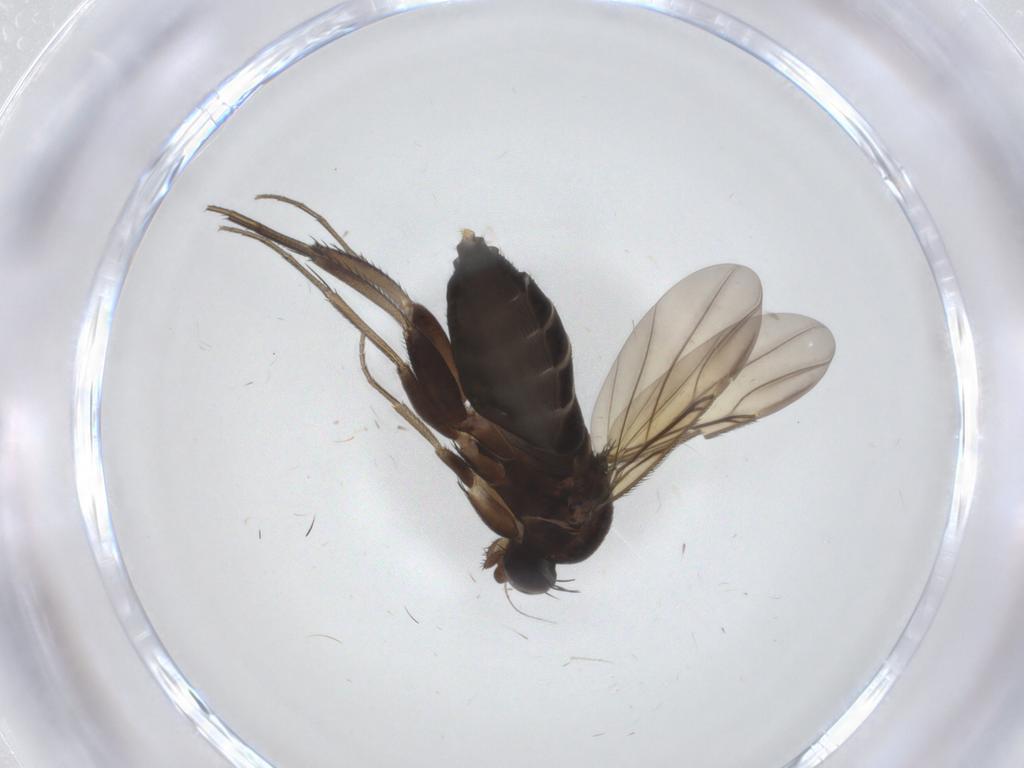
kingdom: Animalia
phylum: Arthropoda
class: Insecta
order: Diptera
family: Phoridae
